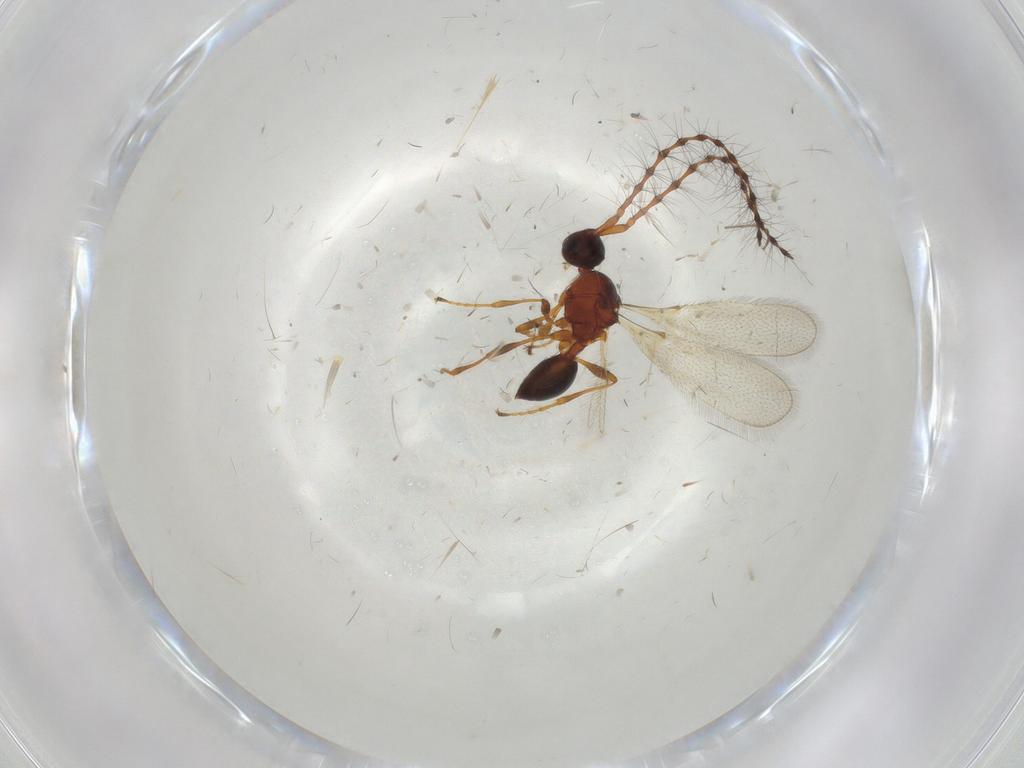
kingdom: Animalia
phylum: Arthropoda
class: Insecta
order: Hymenoptera
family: Diapriidae
